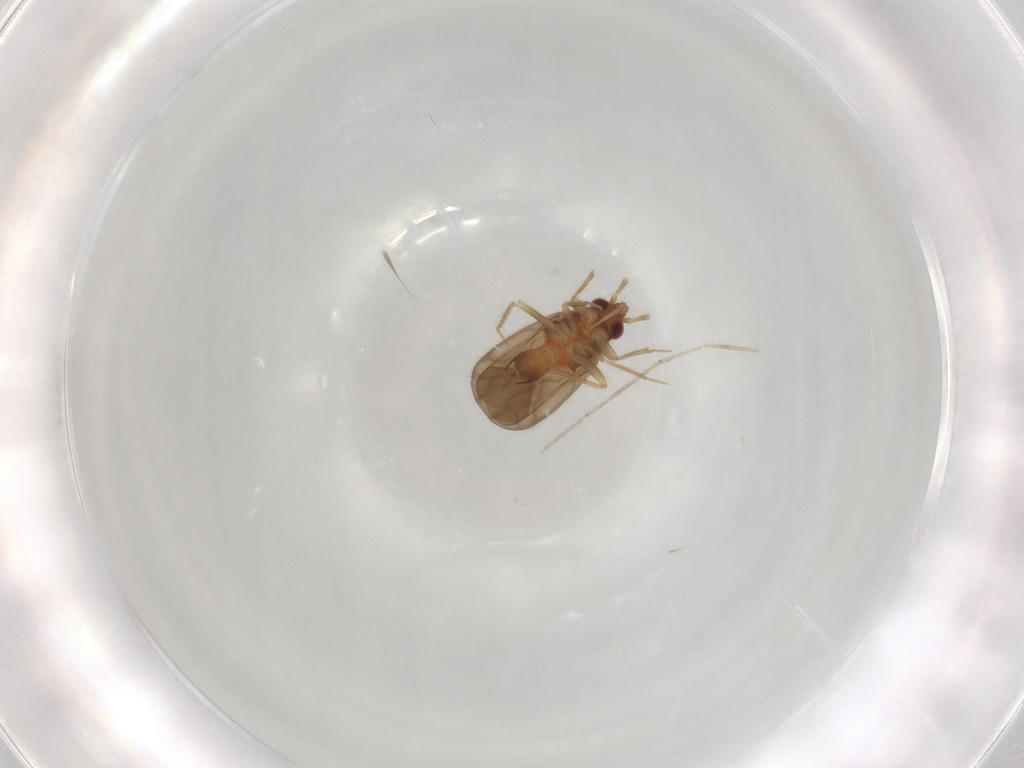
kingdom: Animalia
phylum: Arthropoda
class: Insecta
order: Hemiptera
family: Ceratocombidae
